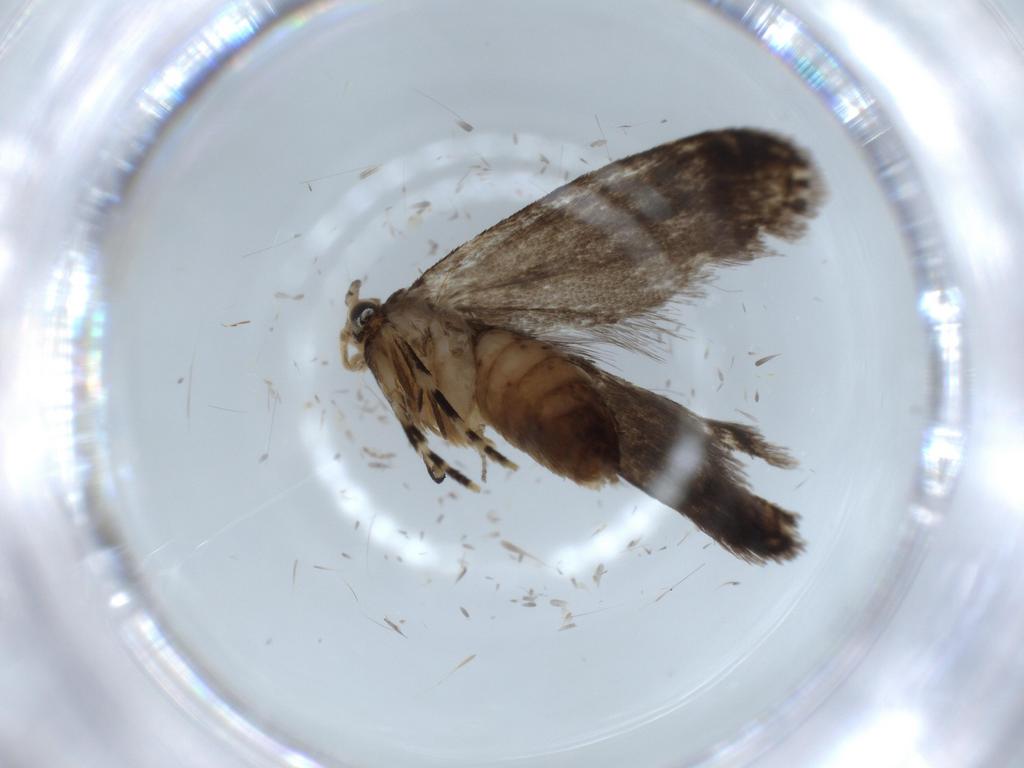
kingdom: Animalia
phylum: Arthropoda
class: Insecta
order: Lepidoptera
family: Tineidae
